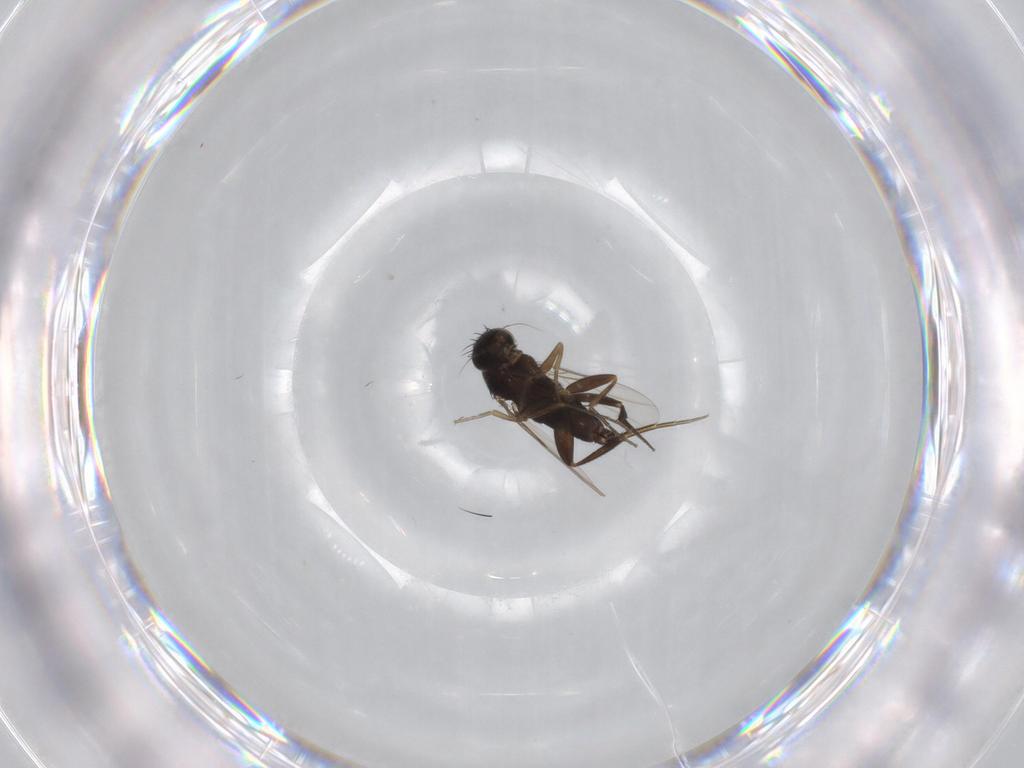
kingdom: Animalia
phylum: Arthropoda
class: Insecta
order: Diptera
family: Phoridae
